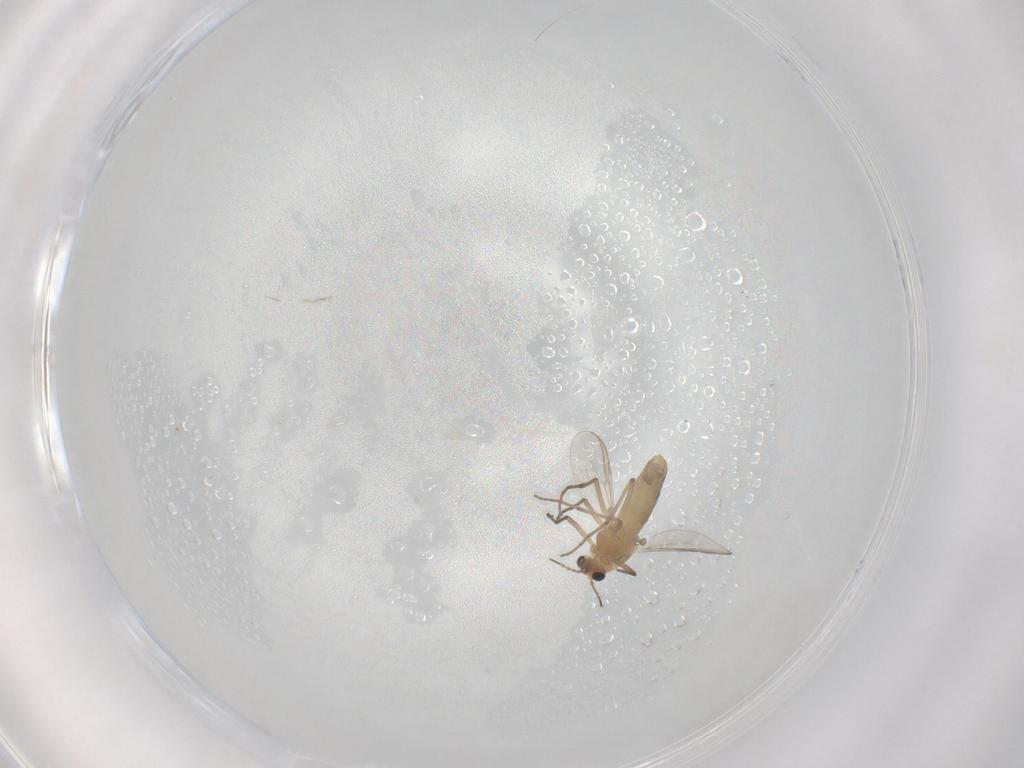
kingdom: Animalia
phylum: Arthropoda
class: Insecta
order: Diptera
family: Chironomidae
